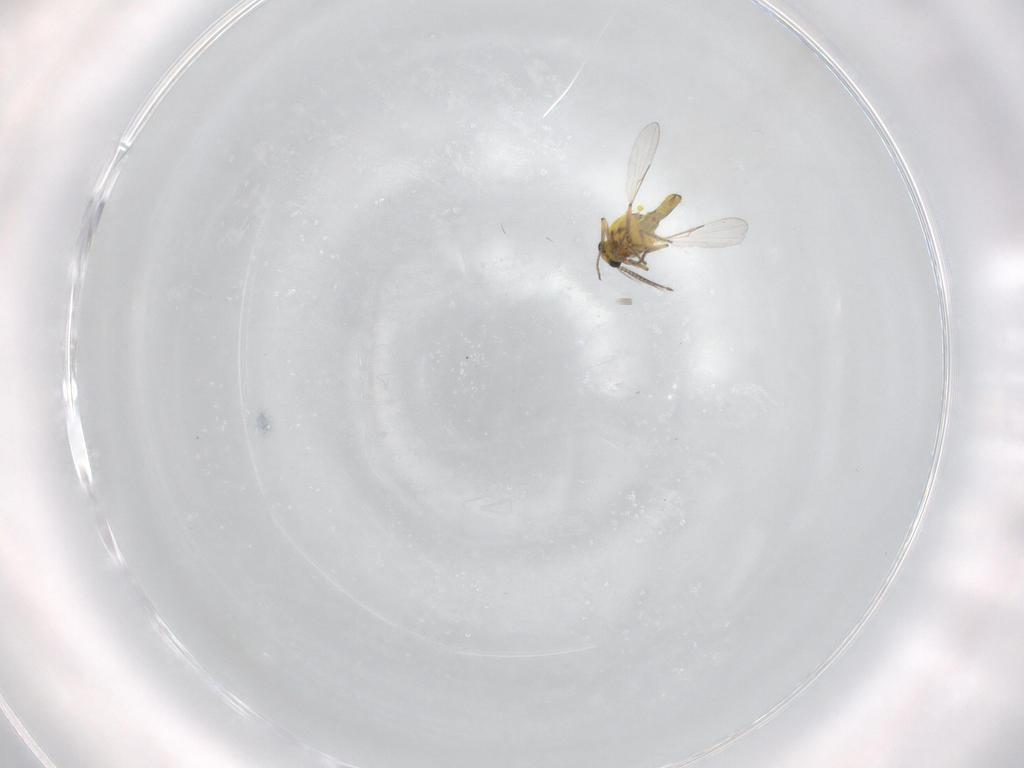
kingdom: Animalia
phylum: Arthropoda
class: Insecta
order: Diptera
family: Ceratopogonidae
